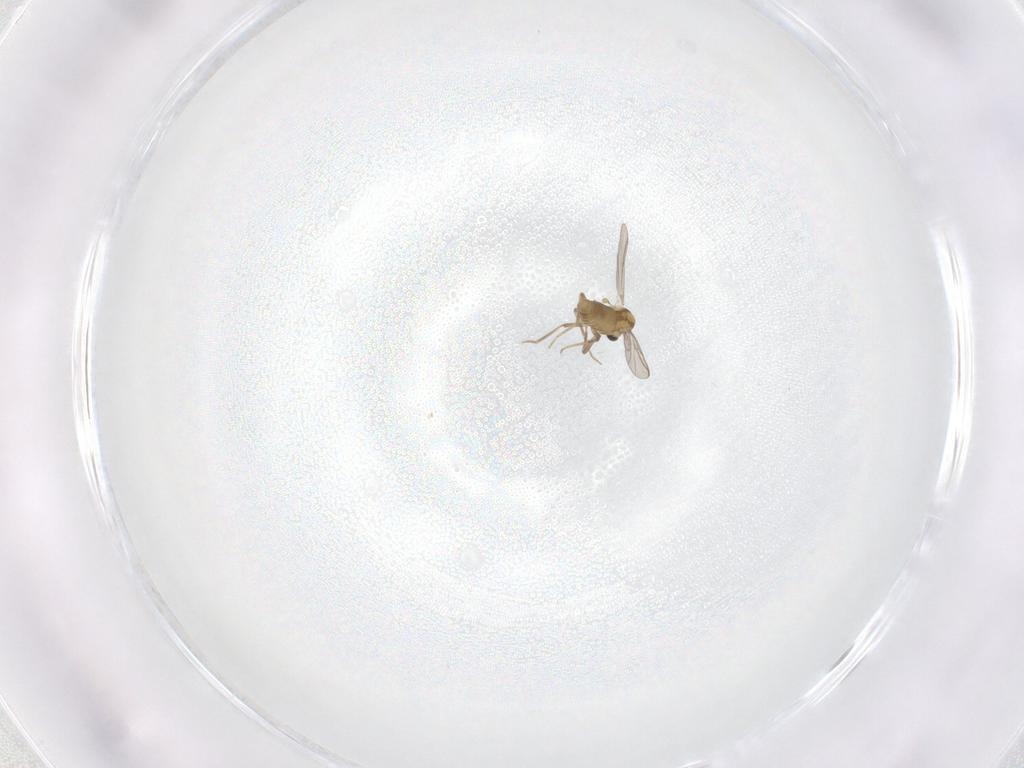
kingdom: Animalia
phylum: Arthropoda
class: Insecta
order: Diptera
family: Chironomidae
